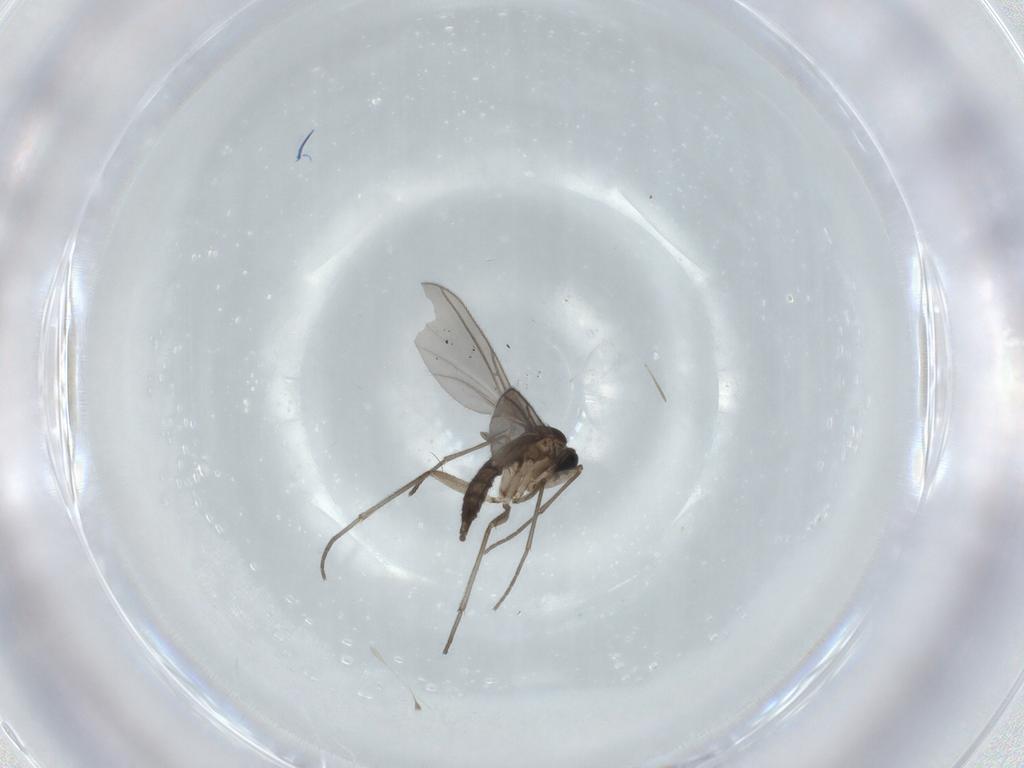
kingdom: Animalia
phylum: Arthropoda
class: Insecta
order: Diptera
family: Sciaridae
